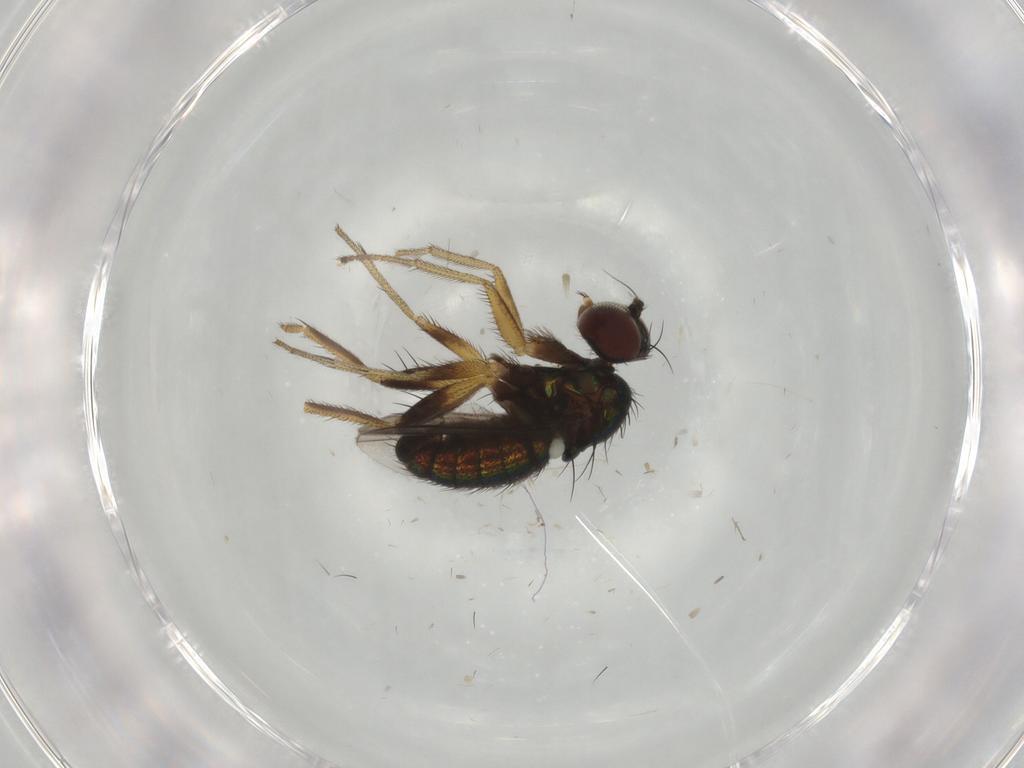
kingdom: Animalia
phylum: Arthropoda
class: Insecta
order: Diptera
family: Dolichopodidae
